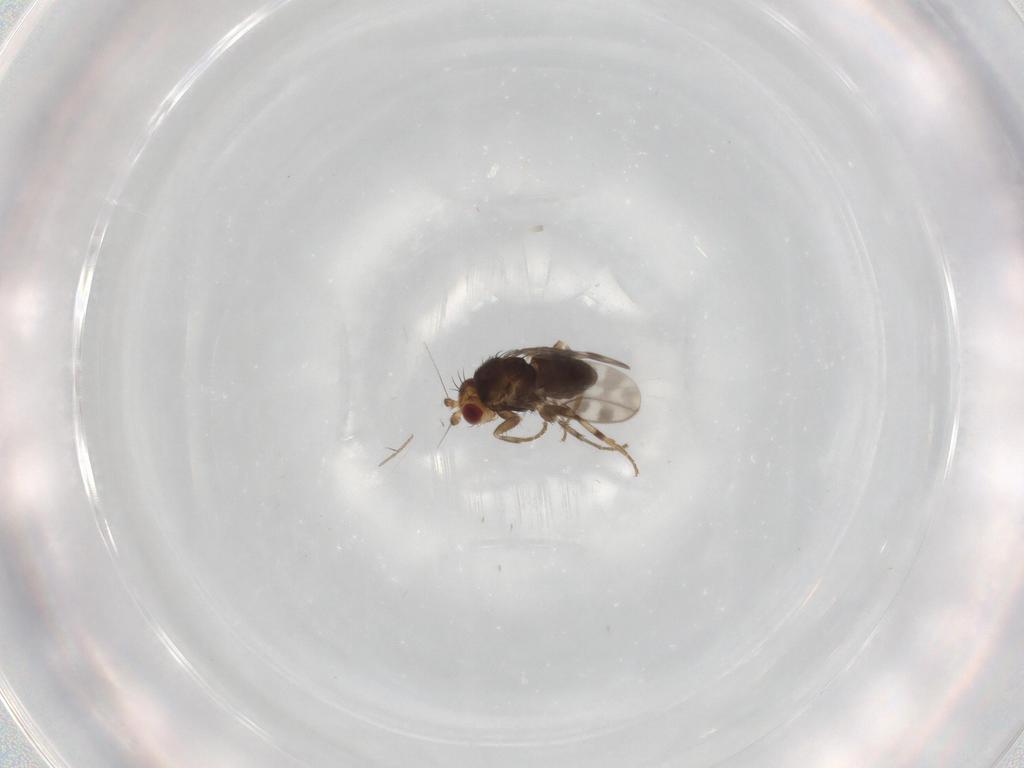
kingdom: Animalia
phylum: Arthropoda
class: Insecta
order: Diptera
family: Sphaeroceridae
